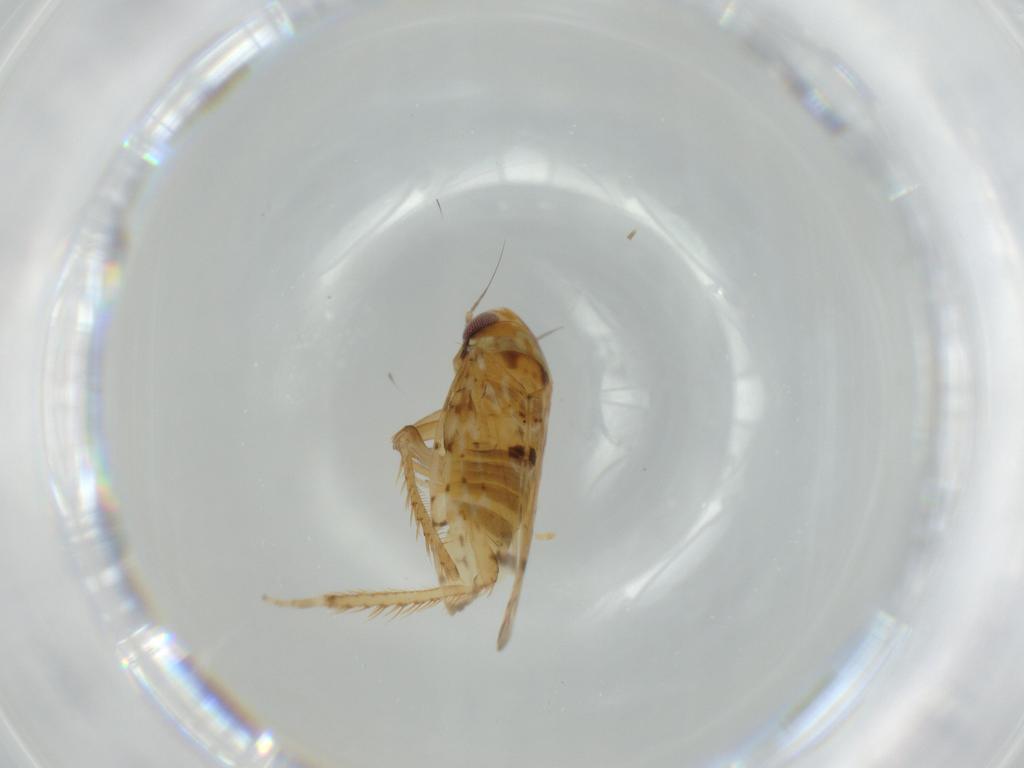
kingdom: Animalia
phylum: Arthropoda
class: Insecta
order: Hemiptera
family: Cicadellidae
